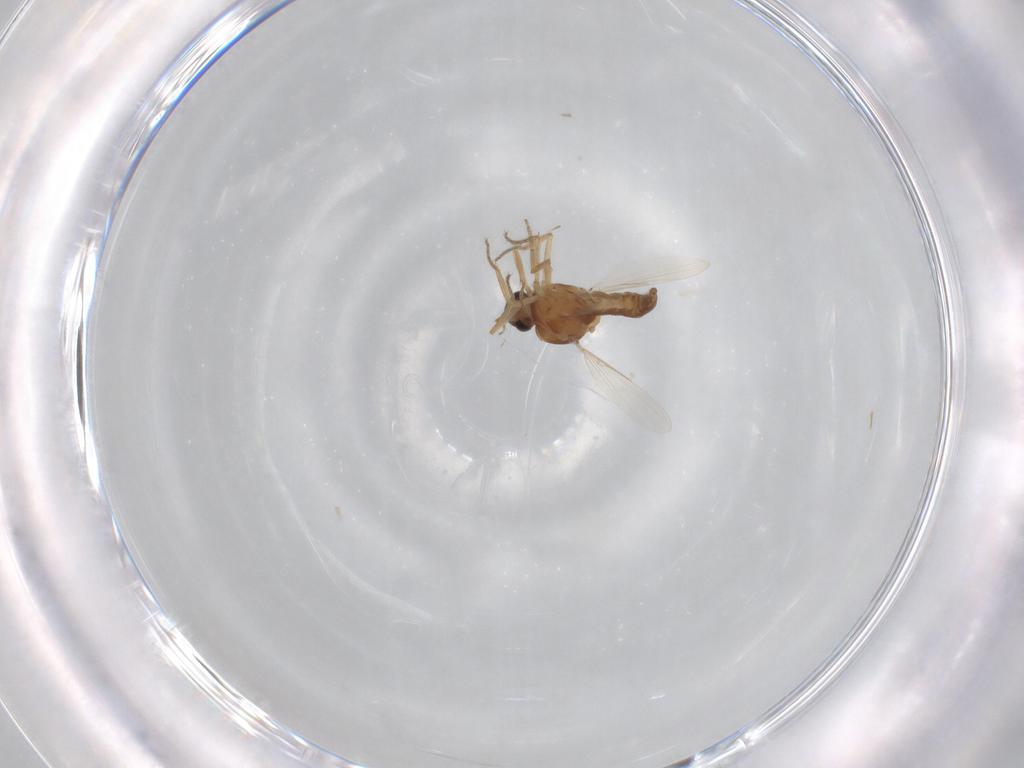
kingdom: Animalia
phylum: Arthropoda
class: Insecta
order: Diptera
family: Ceratopogonidae
